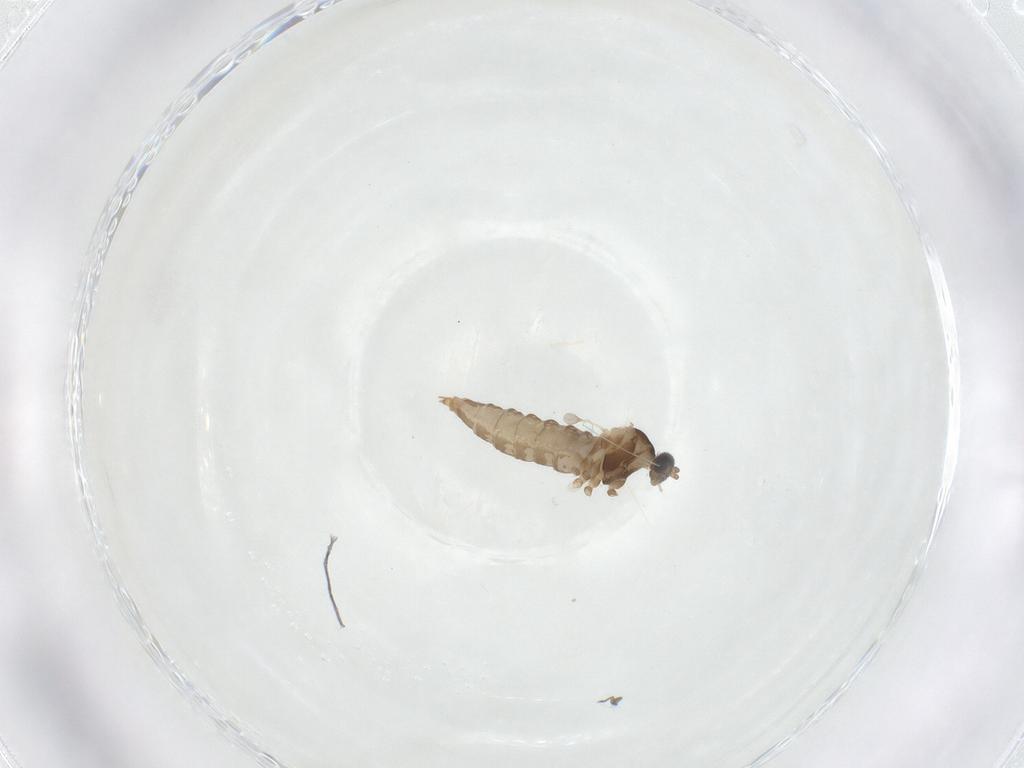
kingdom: Animalia
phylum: Arthropoda
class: Insecta
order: Diptera
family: Cecidomyiidae
